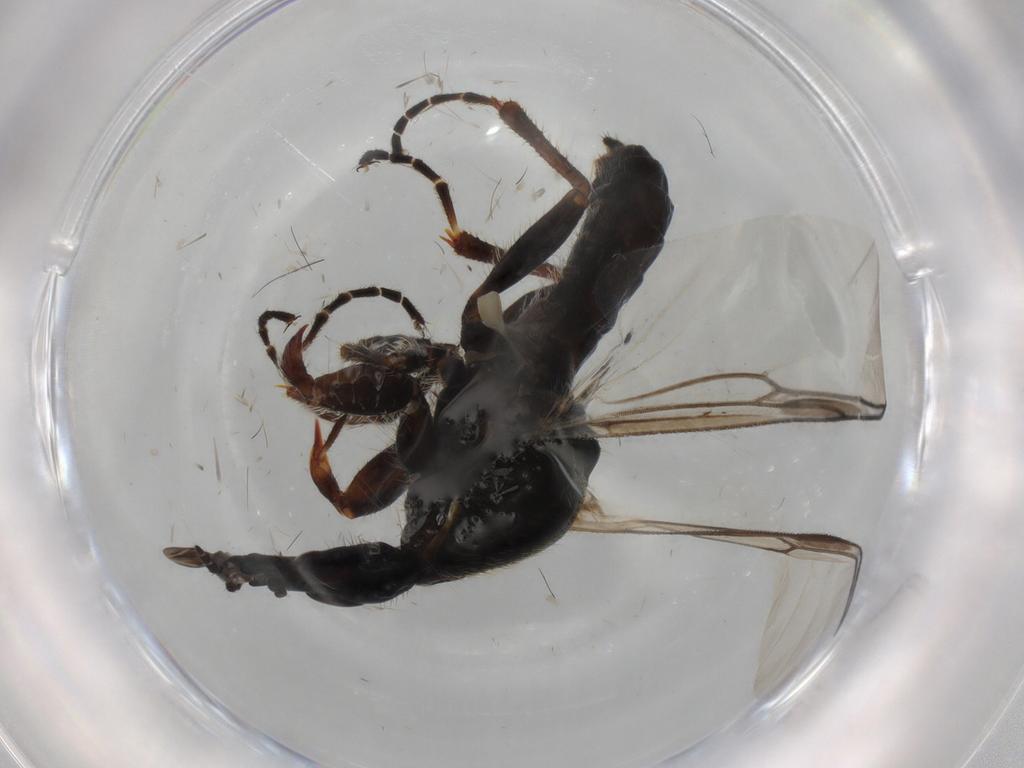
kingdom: Animalia
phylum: Arthropoda
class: Insecta
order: Diptera
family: Bibionidae
